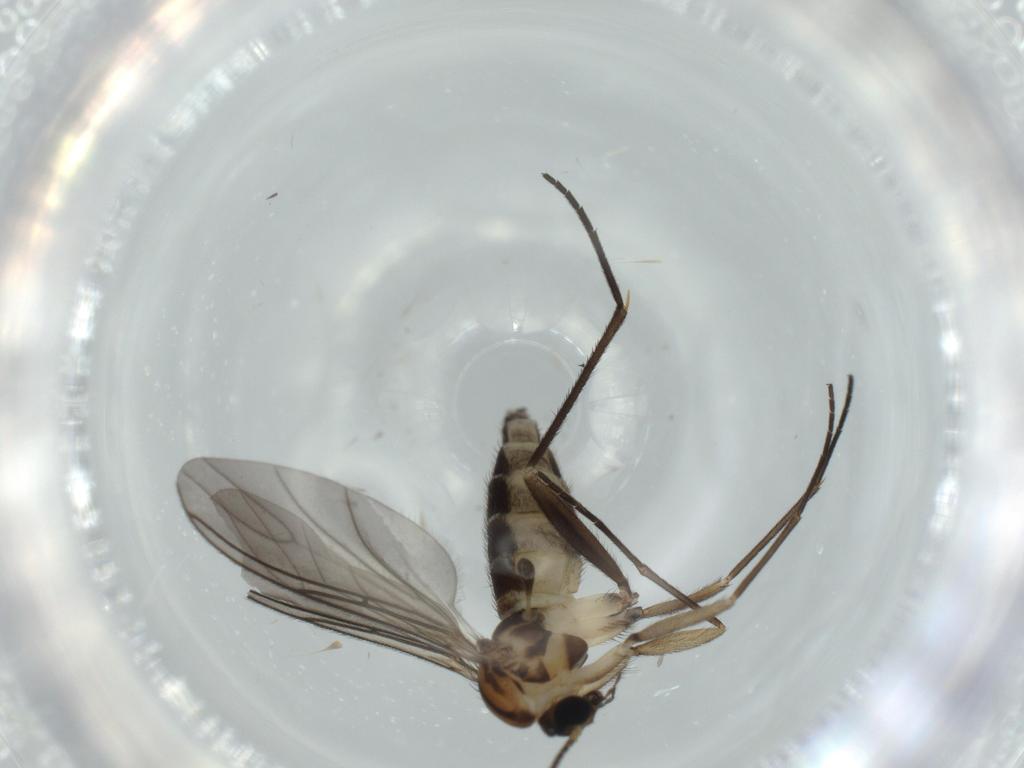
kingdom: Animalia
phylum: Arthropoda
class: Insecta
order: Diptera
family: Sciaridae
